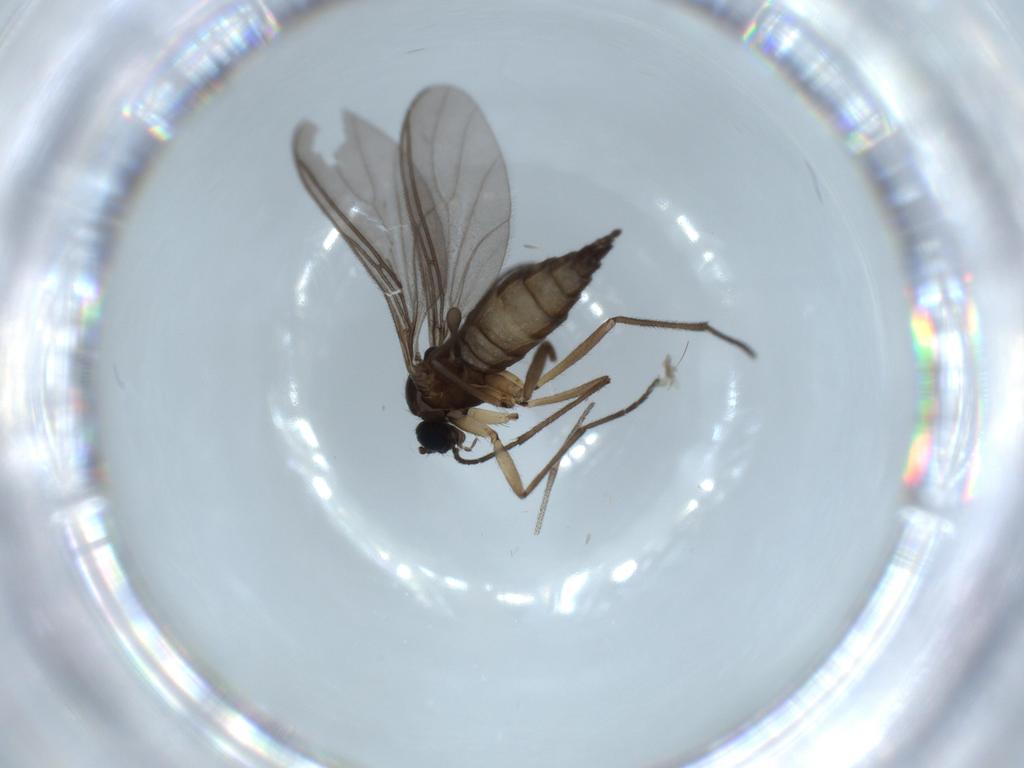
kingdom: Animalia
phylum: Arthropoda
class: Insecta
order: Diptera
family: Sciaridae
